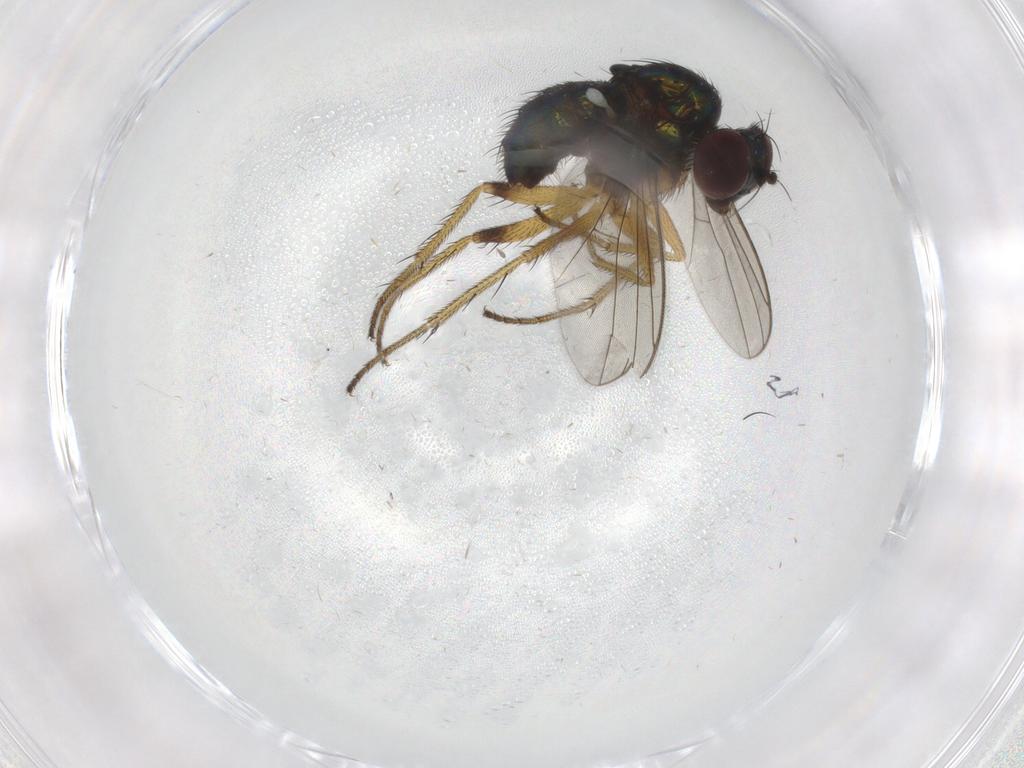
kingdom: Animalia
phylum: Arthropoda
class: Insecta
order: Diptera
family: Dolichopodidae
